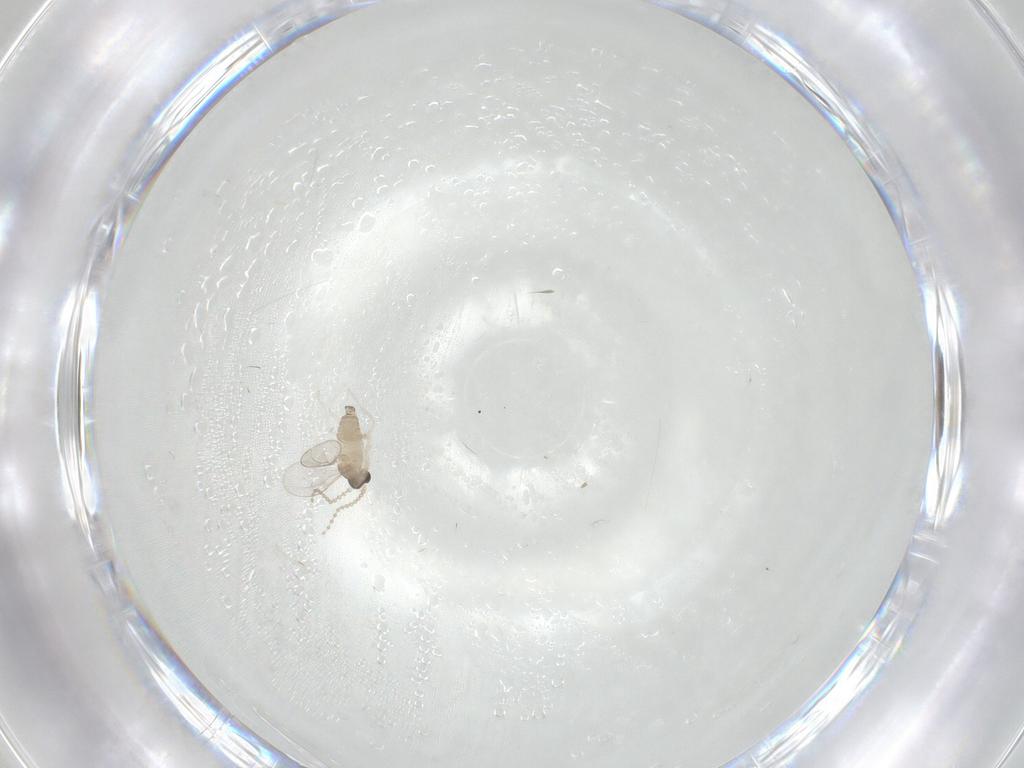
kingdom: Animalia
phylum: Arthropoda
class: Insecta
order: Diptera
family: Cecidomyiidae
